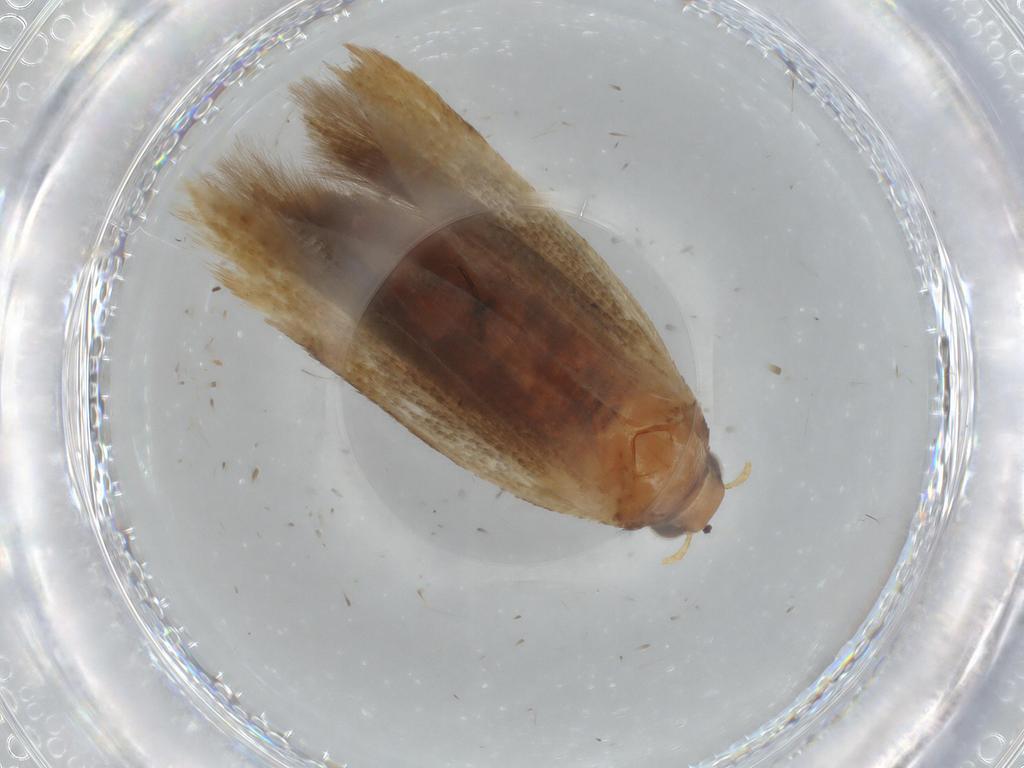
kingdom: Animalia
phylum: Arthropoda
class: Insecta
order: Lepidoptera
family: Gelechiidae
